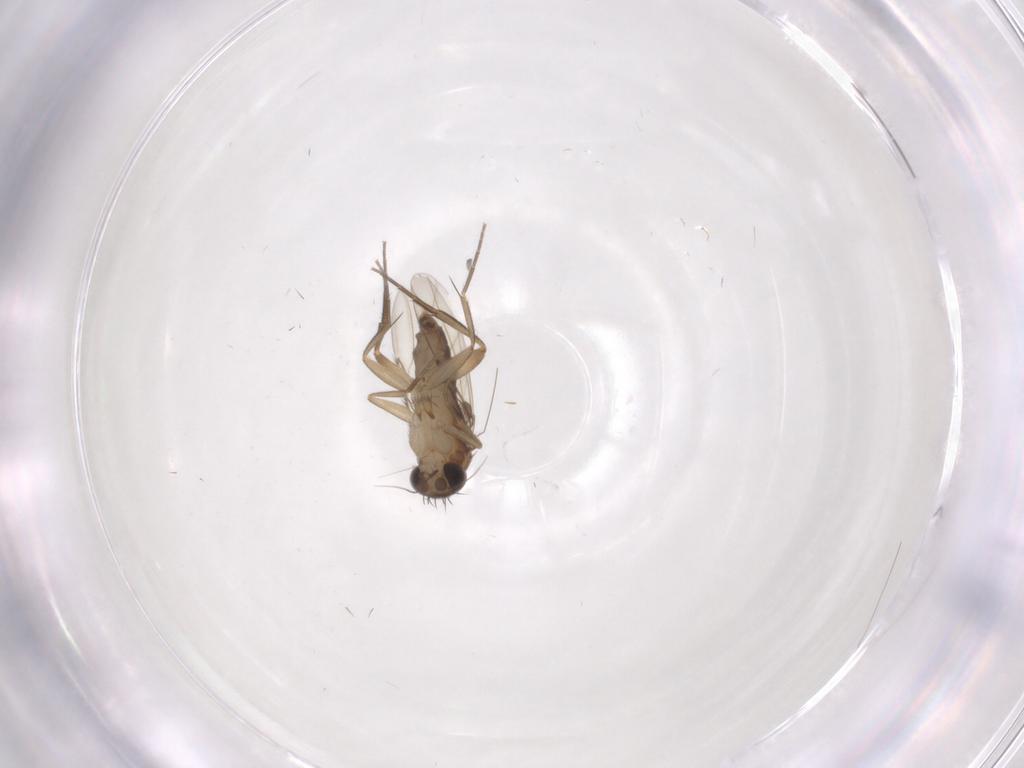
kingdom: Animalia
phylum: Arthropoda
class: Insecta
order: Diptera
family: Phoridae
